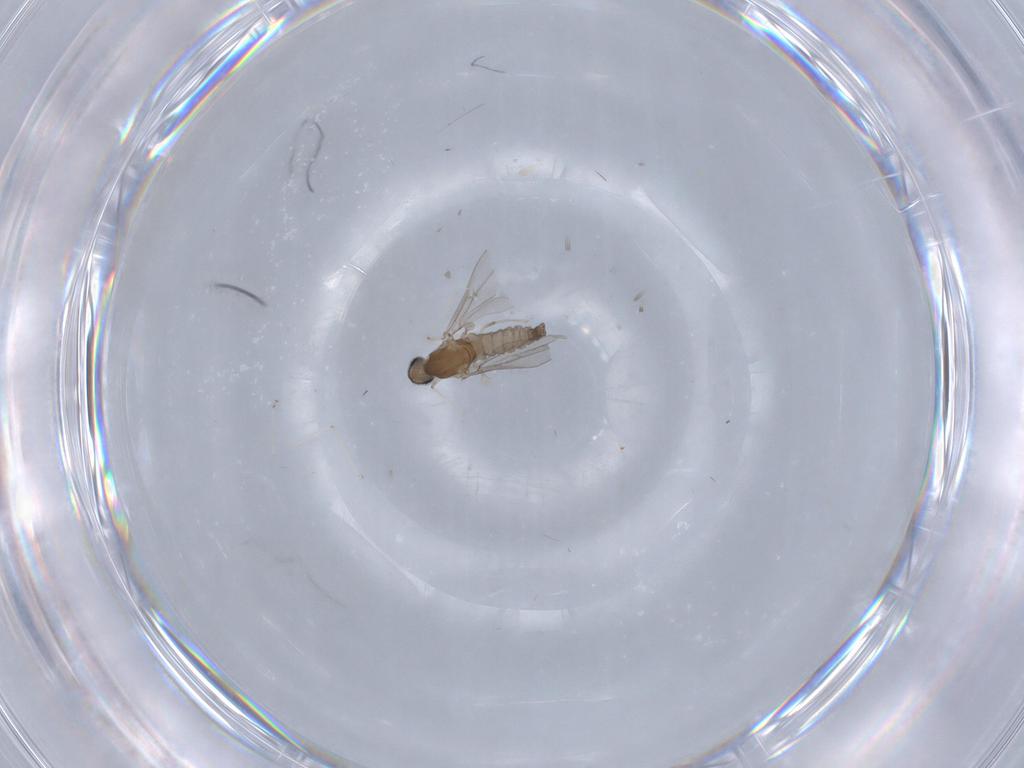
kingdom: Animalia
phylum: Arthropoda
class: Insecta
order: Diptera
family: Cecidomyiidae
